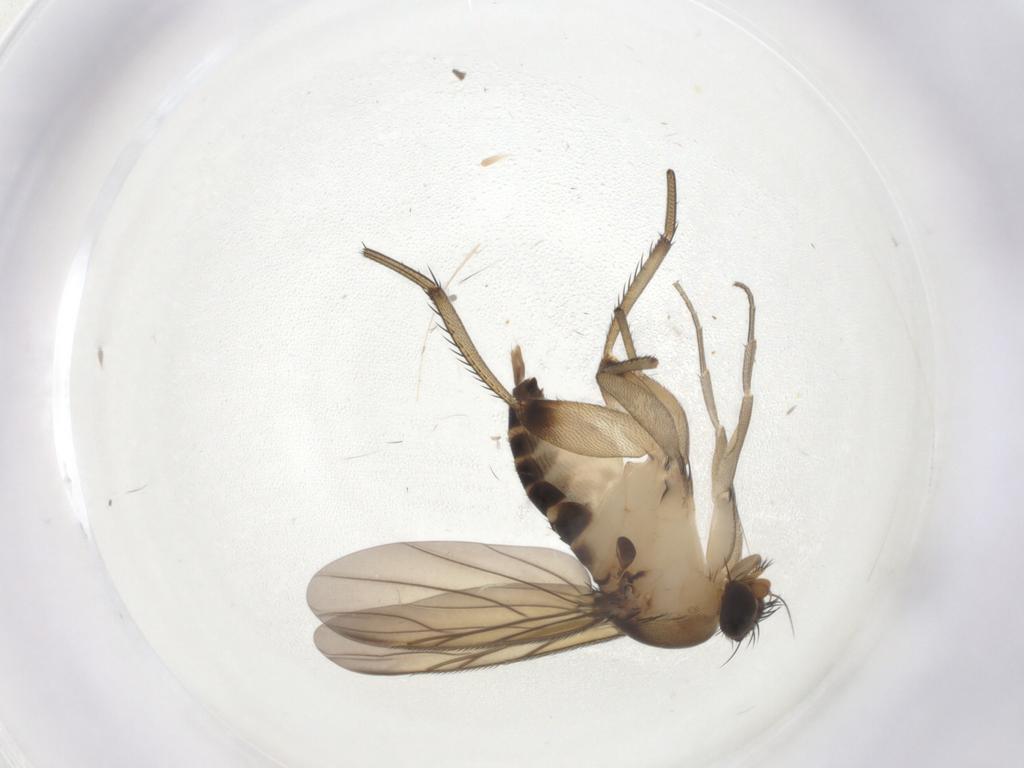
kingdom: Animalia
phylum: Arthropoda
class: Insecta
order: Diptera
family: Phoridae
